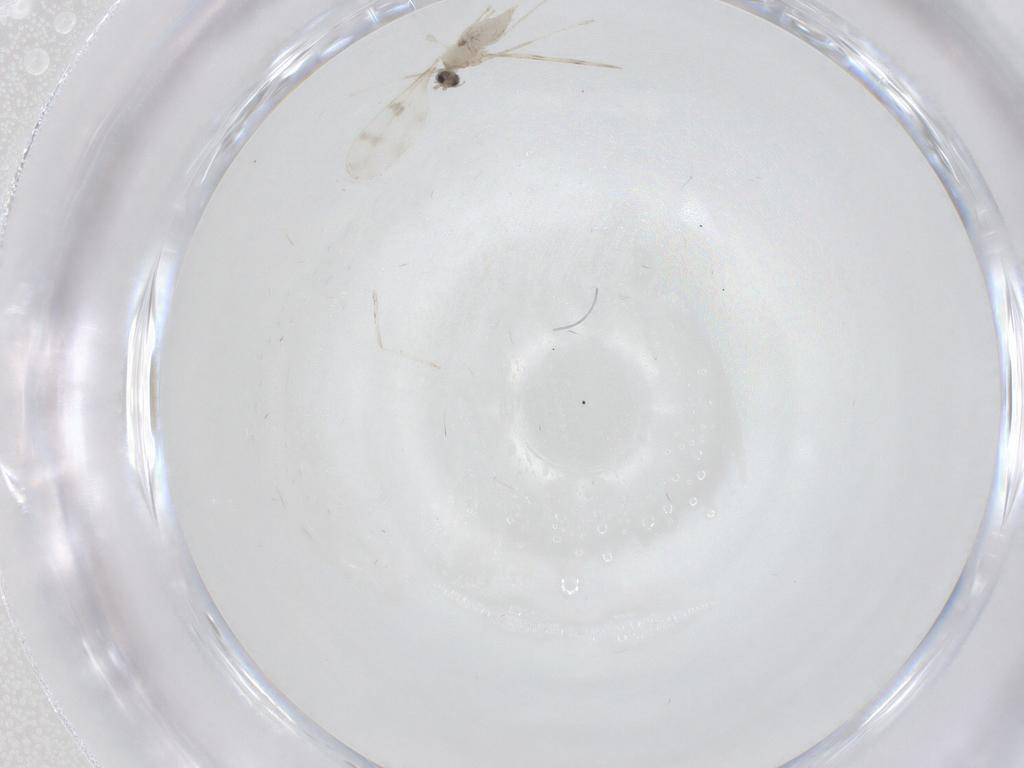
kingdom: Animalia
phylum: Arthropoda
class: Insecta
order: Diptera
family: Cecidomyiidae
